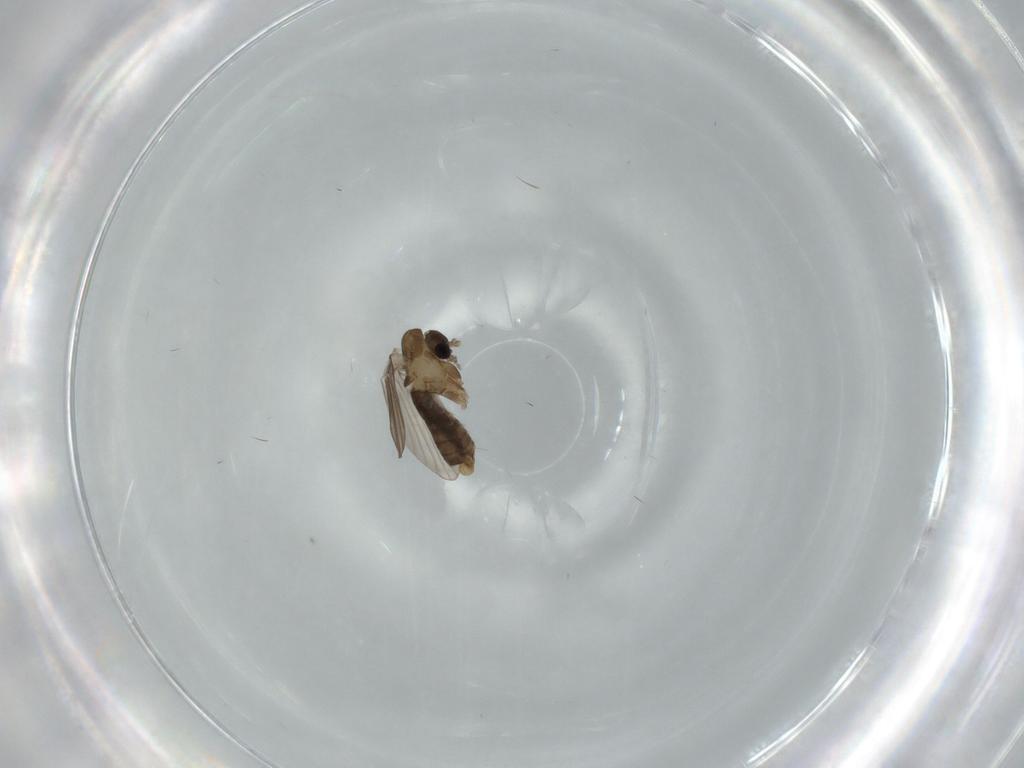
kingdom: Animalia
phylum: Arthropoda
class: Insecta
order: Diptera
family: Psychodidae
